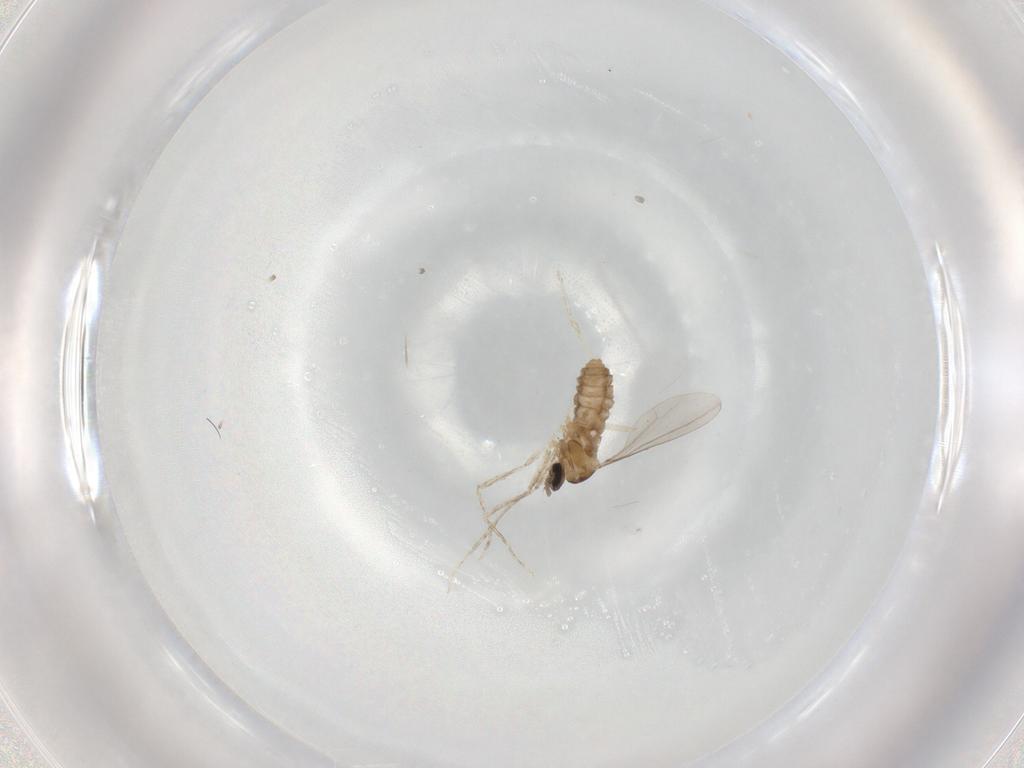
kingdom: Animalia
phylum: Arthropoda
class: Insecta
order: Diptera
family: Cecidomyiidae
